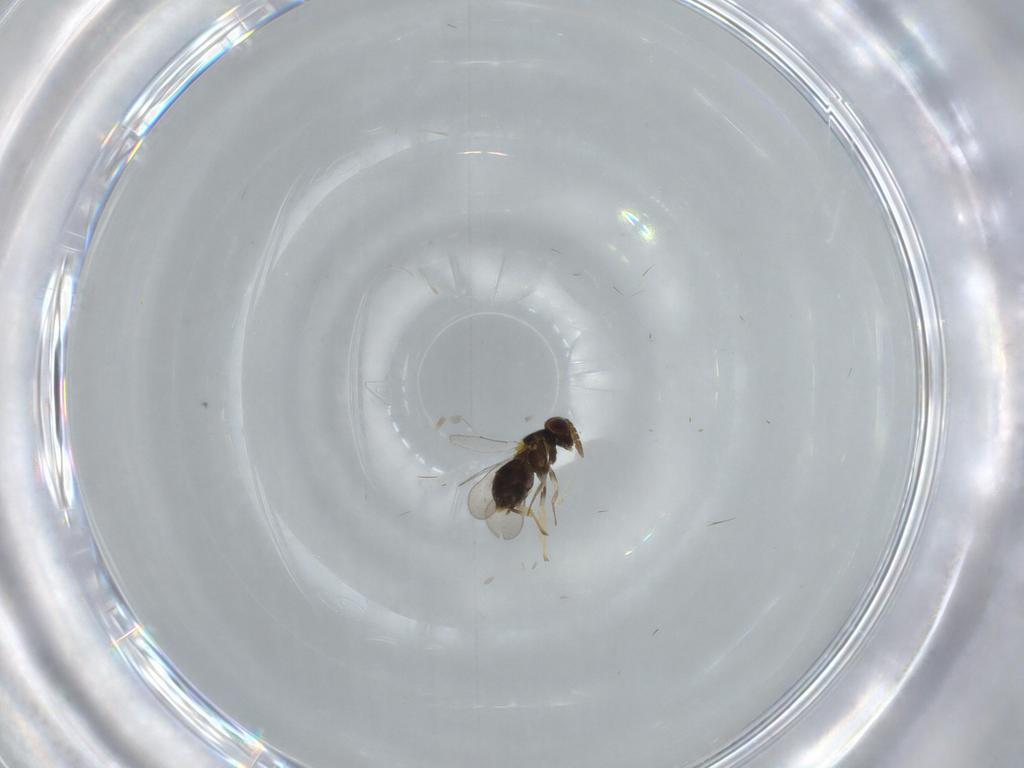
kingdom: Animalia
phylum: Arthropoda
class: Insecta
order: Hymenoptera
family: Aphelinidae
